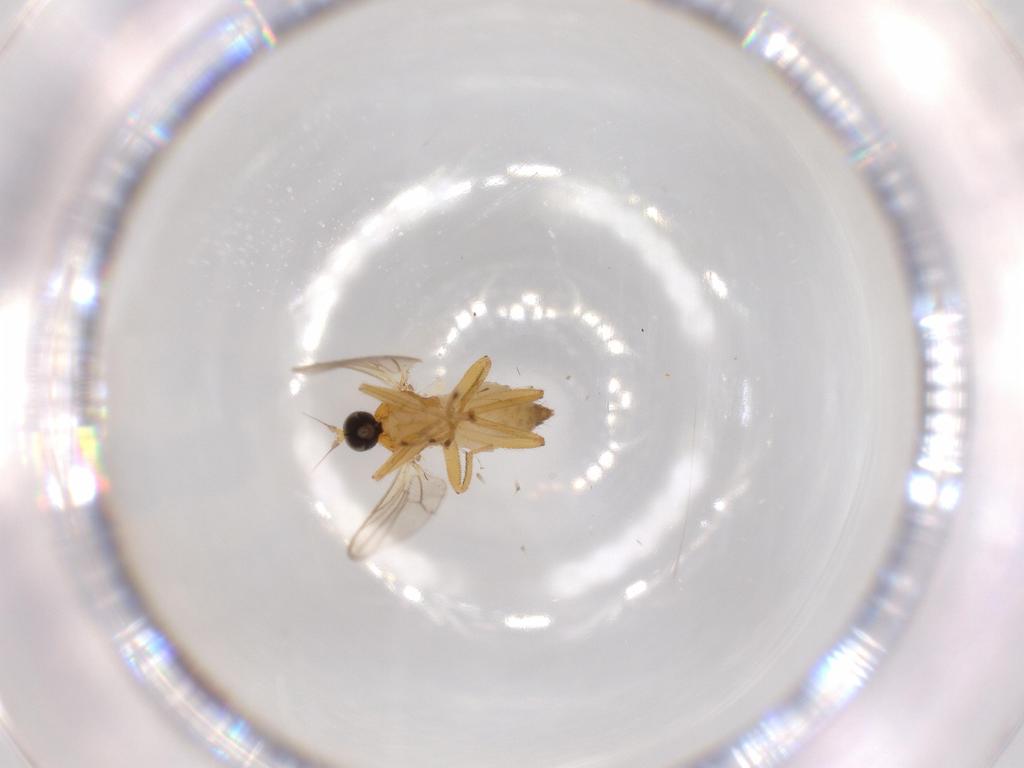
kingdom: Animalia
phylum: Arthropoda
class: Insecta
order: Diptera
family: Hybotidae
